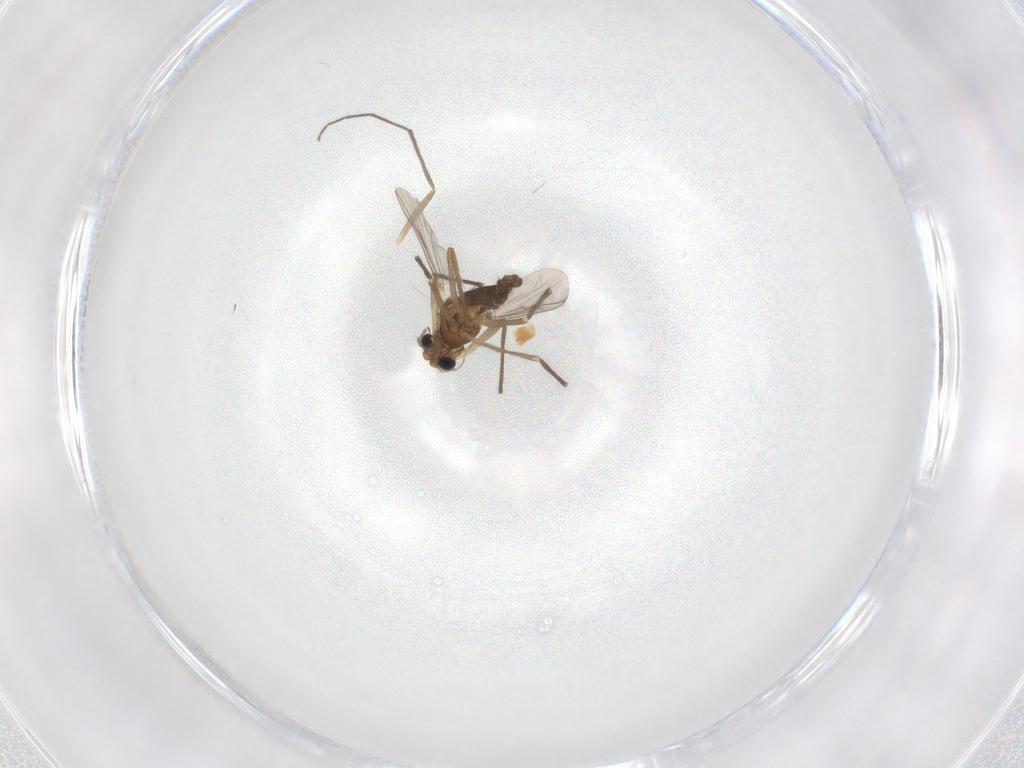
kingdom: Animalia
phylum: Arthropoda
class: Insecta
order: Diptera
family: Chironomidae
